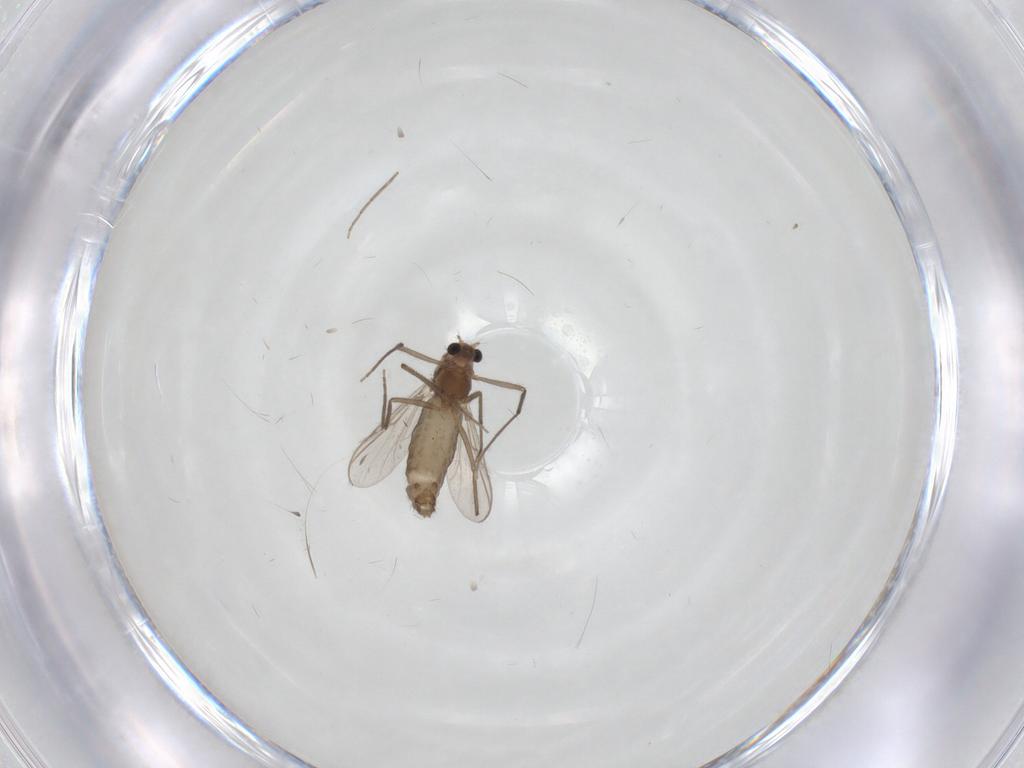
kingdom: Animalia
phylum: Arthropoda
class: Insecta
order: Diptera
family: Chironomidae
